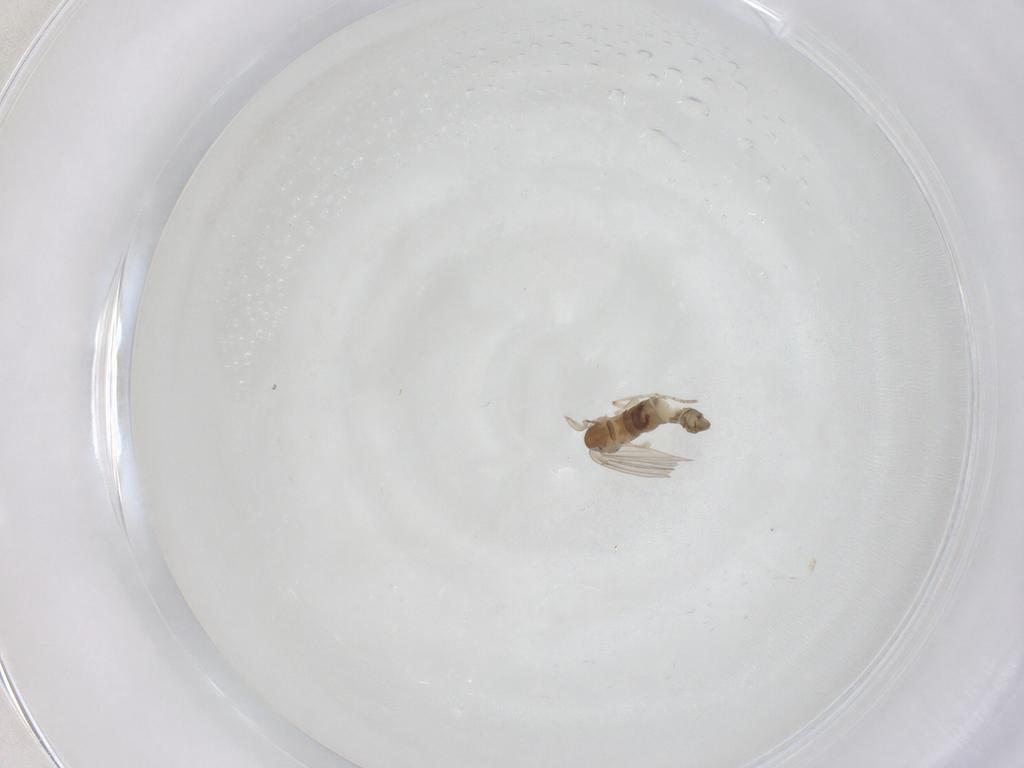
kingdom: Animalia
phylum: Arthropoda
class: Insecta
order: Diptera
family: Psychodidae
